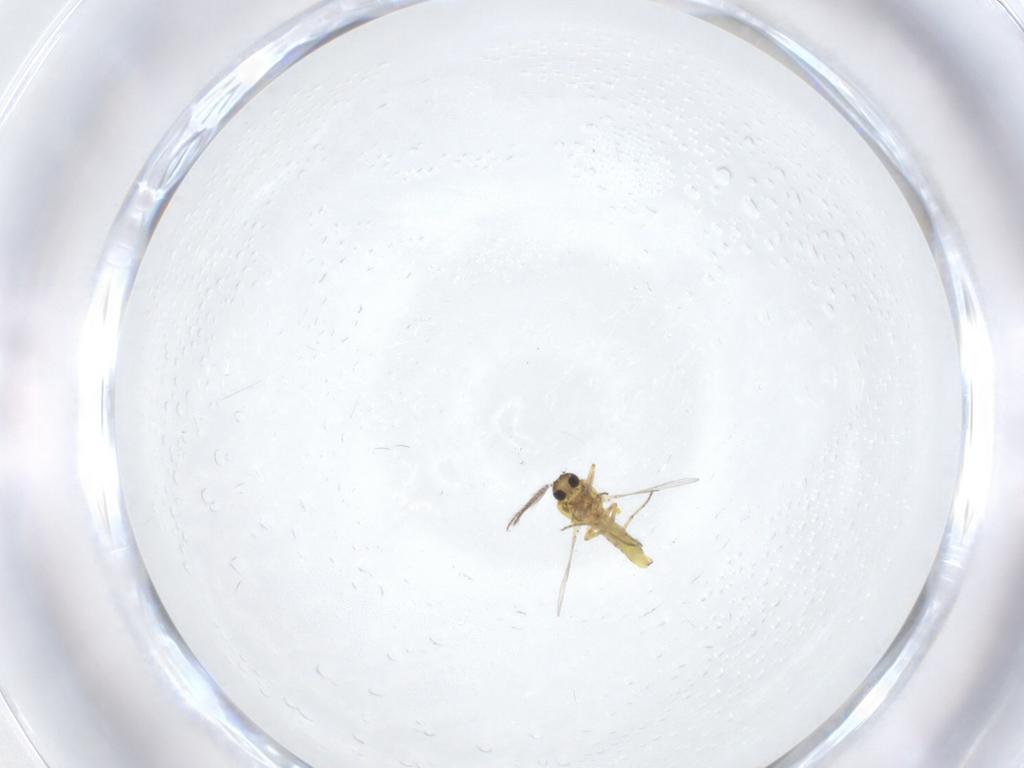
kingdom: Animalia
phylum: Arthropoda
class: Insecta
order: Diptera
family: Ceratopogonidae
